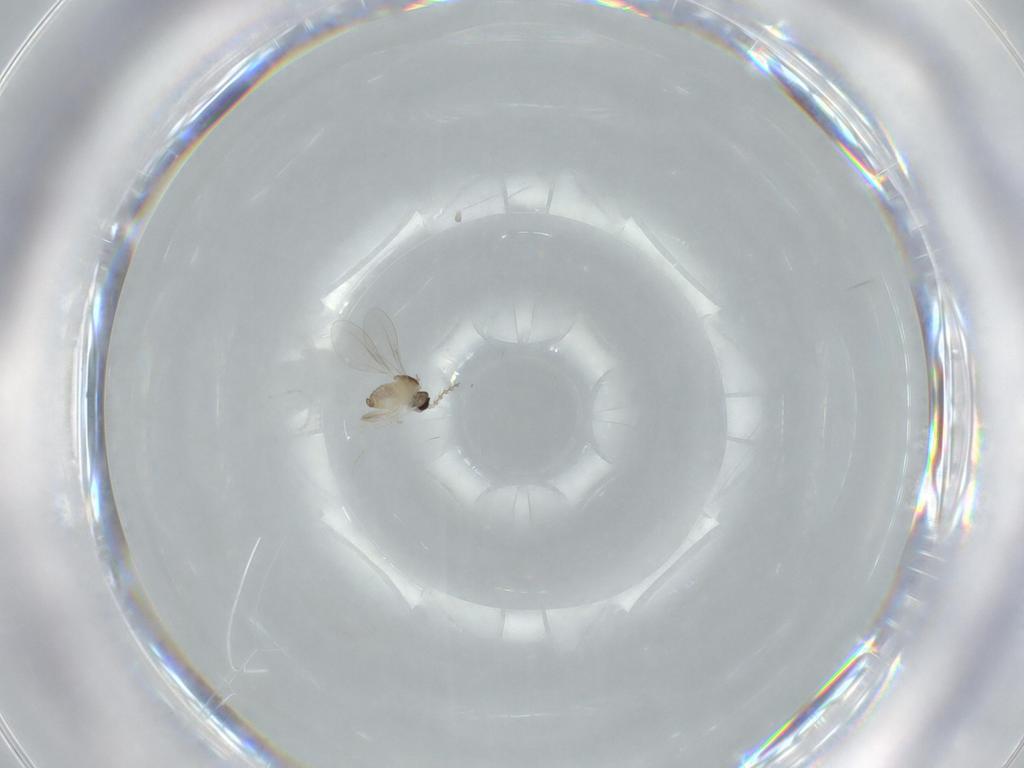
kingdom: Animalia
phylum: Arthropoda
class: Insecta
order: Diptera
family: Cecidomyiidae
